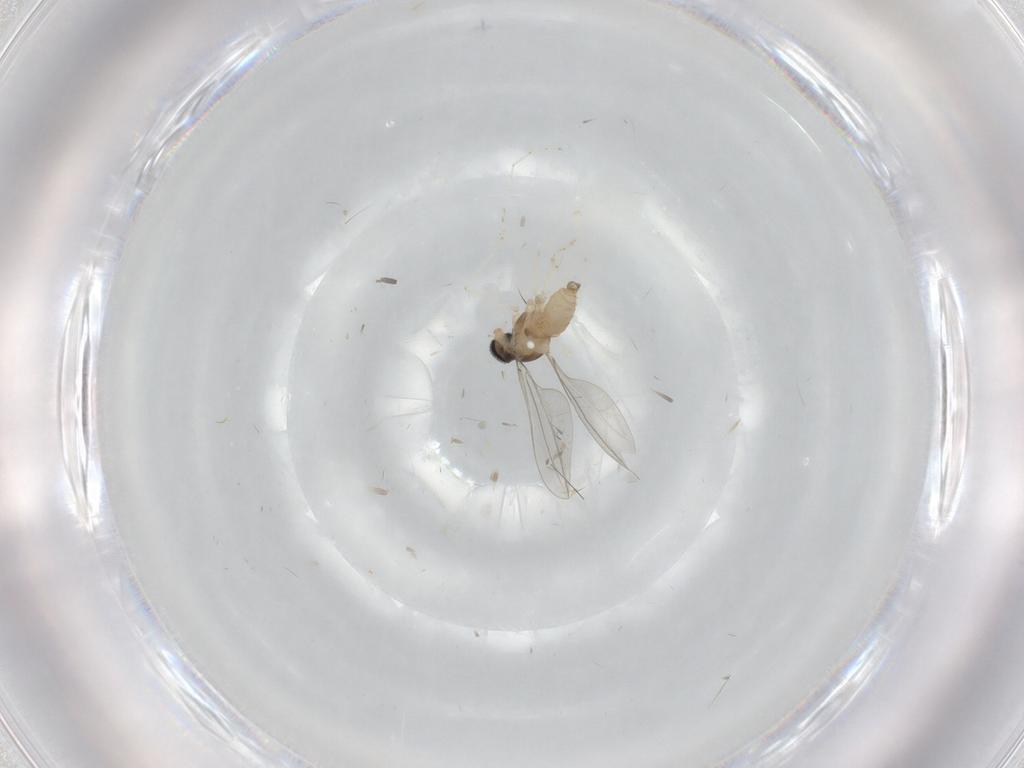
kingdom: Animalia
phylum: Arthropoda
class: Insecta
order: Diptera
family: Cecidomyiidae
